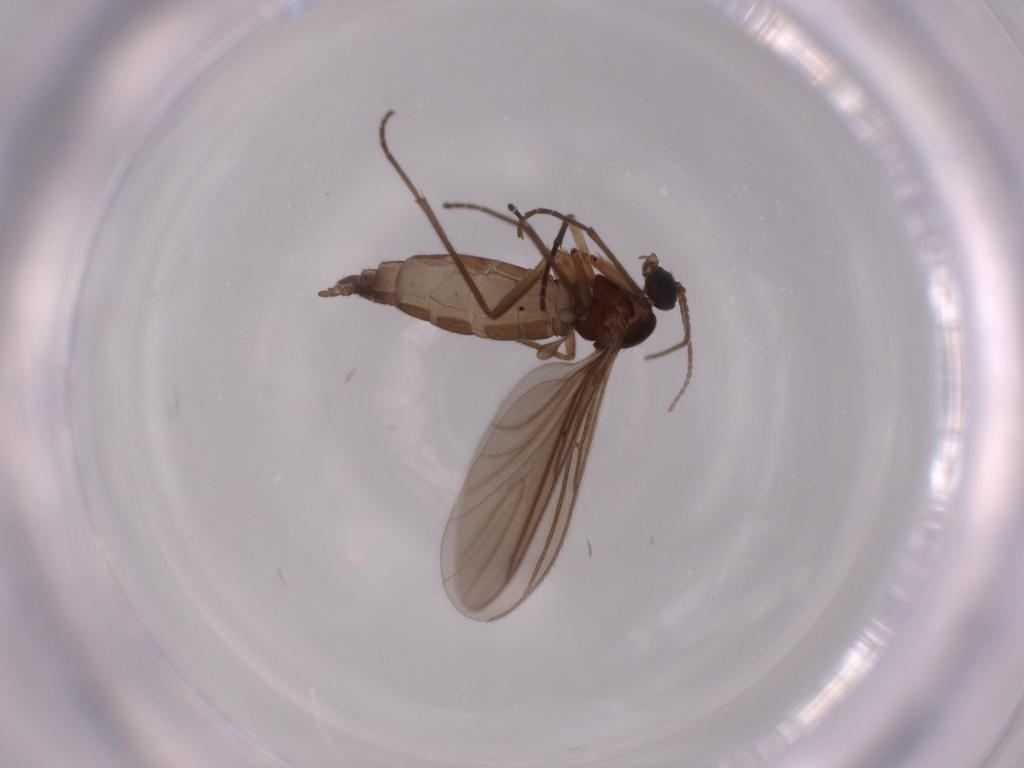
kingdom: Animalia
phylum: Arthropoda
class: Insecta
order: Diptera
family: Sciaridae
